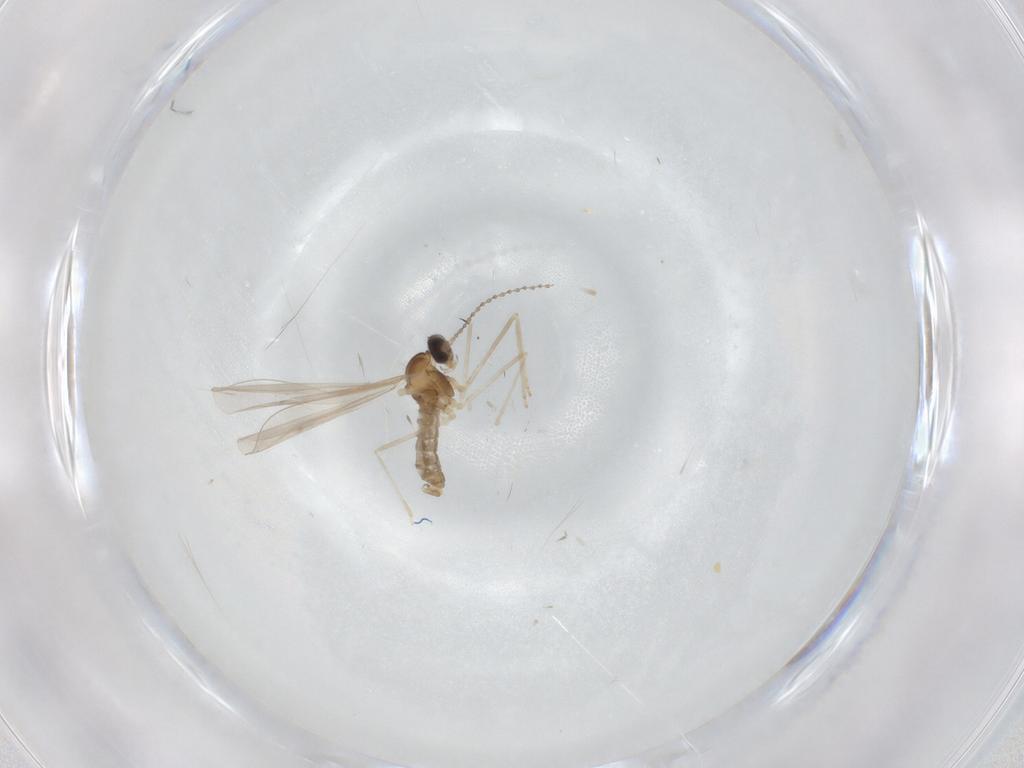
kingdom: Animalia
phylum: Arthropoda
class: Insecta
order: Diptera
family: Cecidomyiidae
